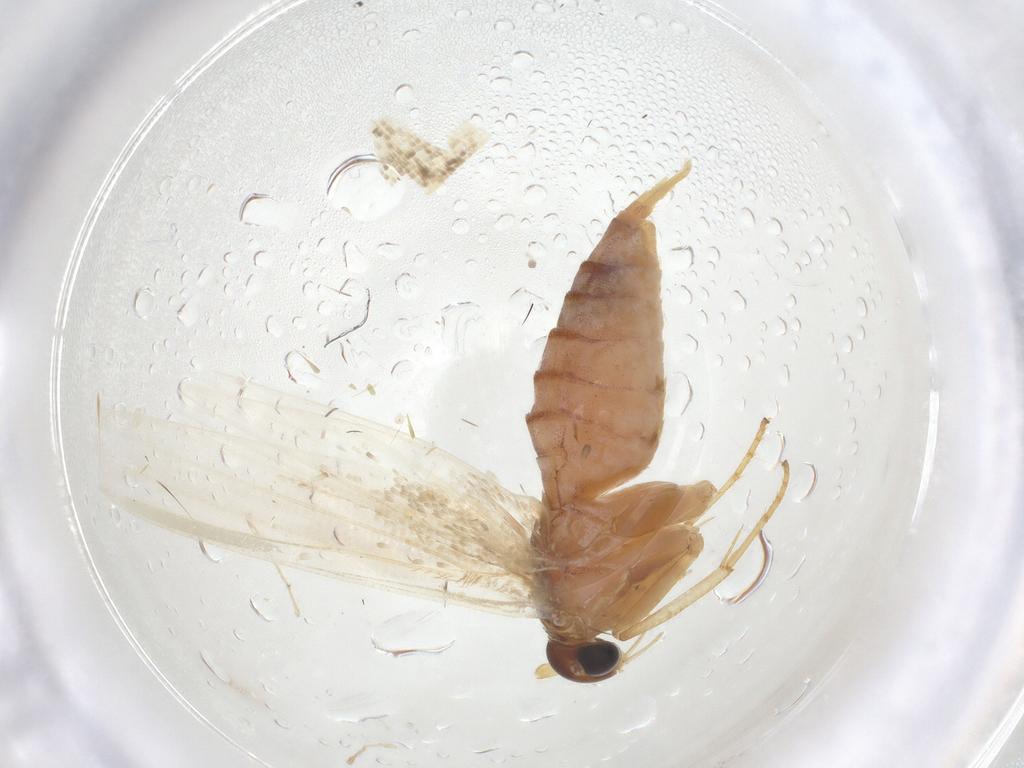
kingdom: Animalia
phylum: Arthropoda
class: Insecta
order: Lepidoptera
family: Blastobasidae
